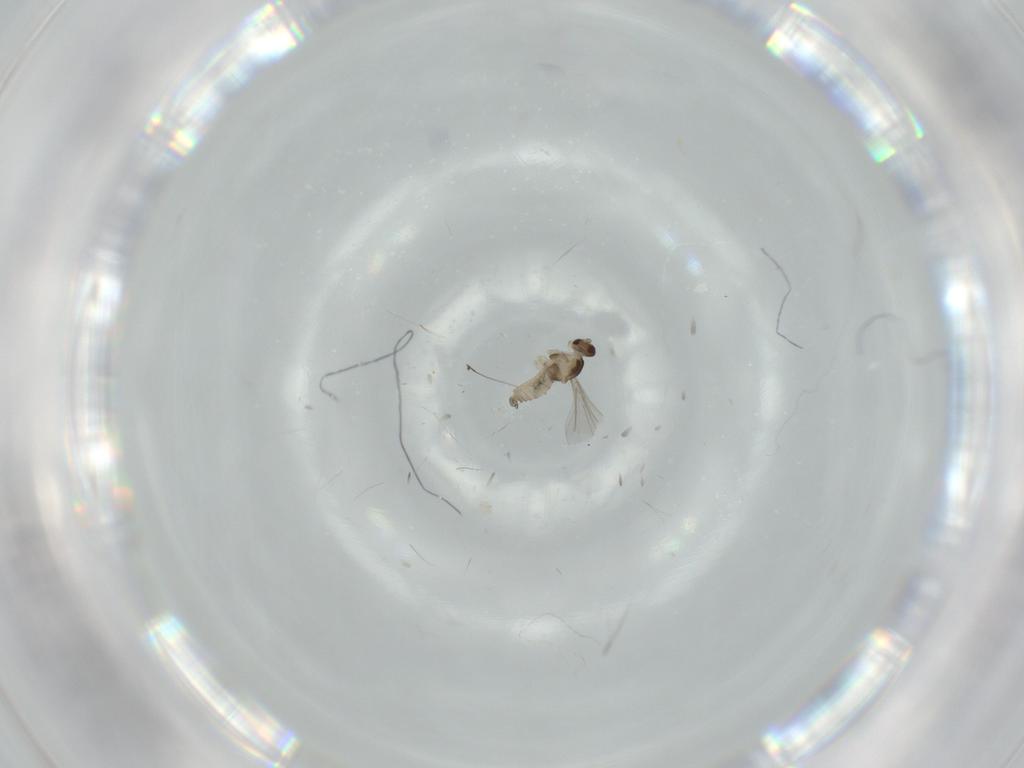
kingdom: Animalia
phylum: Arthropoda
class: Insecta
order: Diptera
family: Cecidomyiidae
